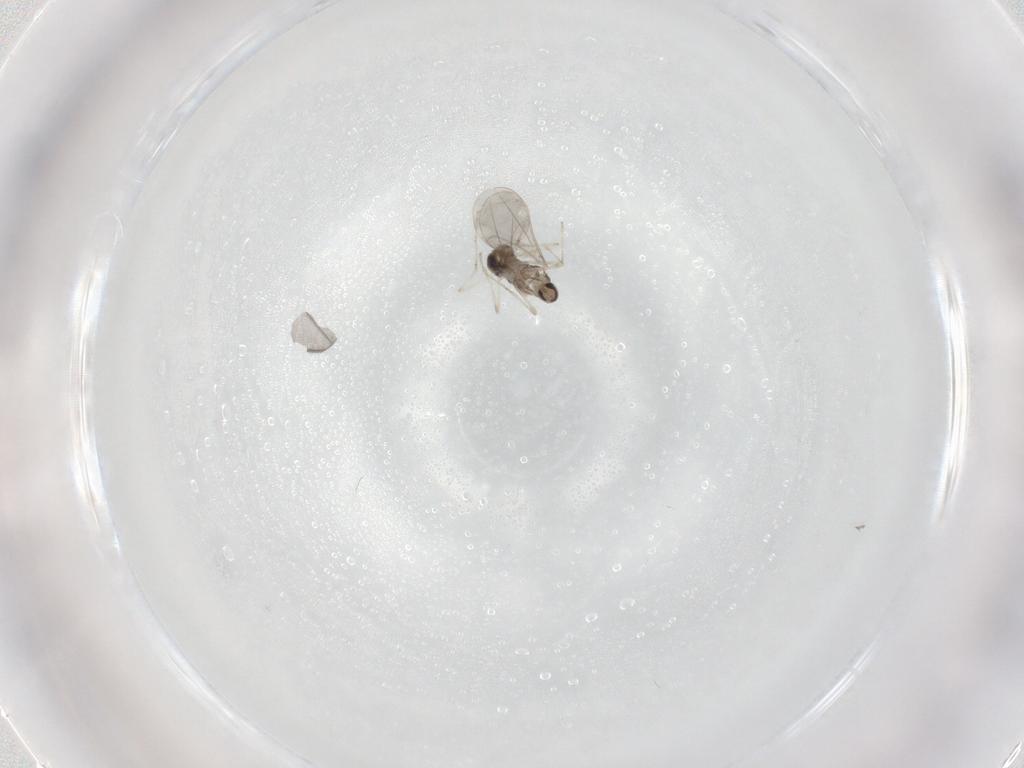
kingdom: Animalia
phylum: Arthropoda
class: Insecta
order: Diptera
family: Cecidomyiidae
